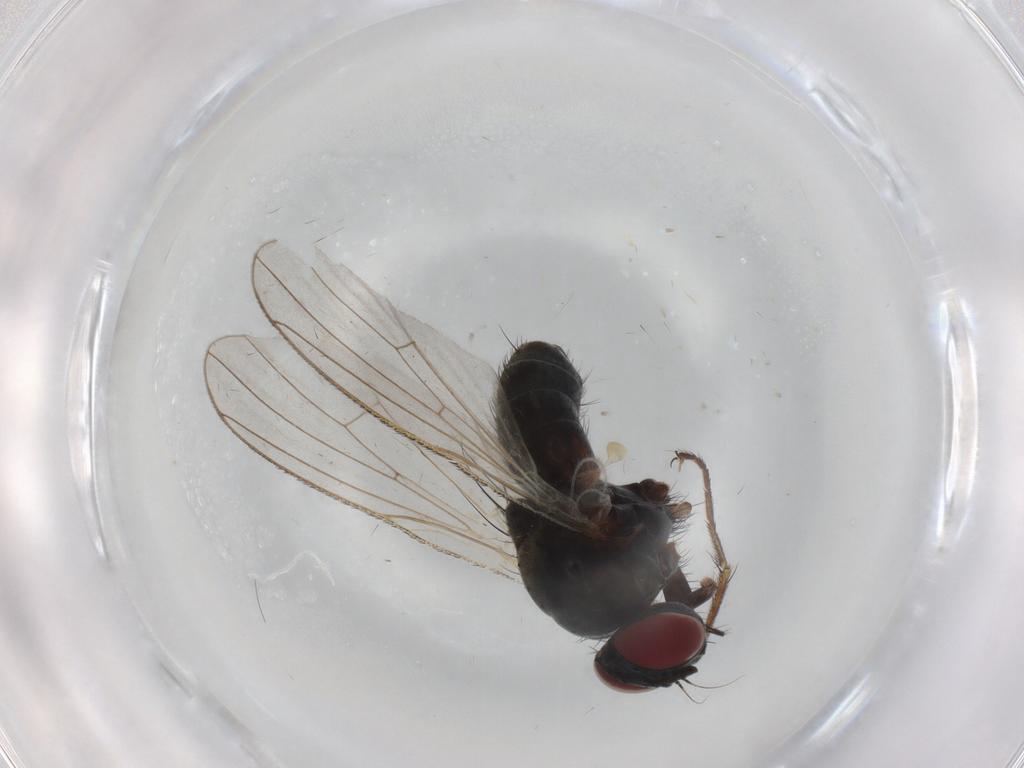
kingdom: Animalia
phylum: Arthropoda
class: Insecta
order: Diptera
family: Muscidae
